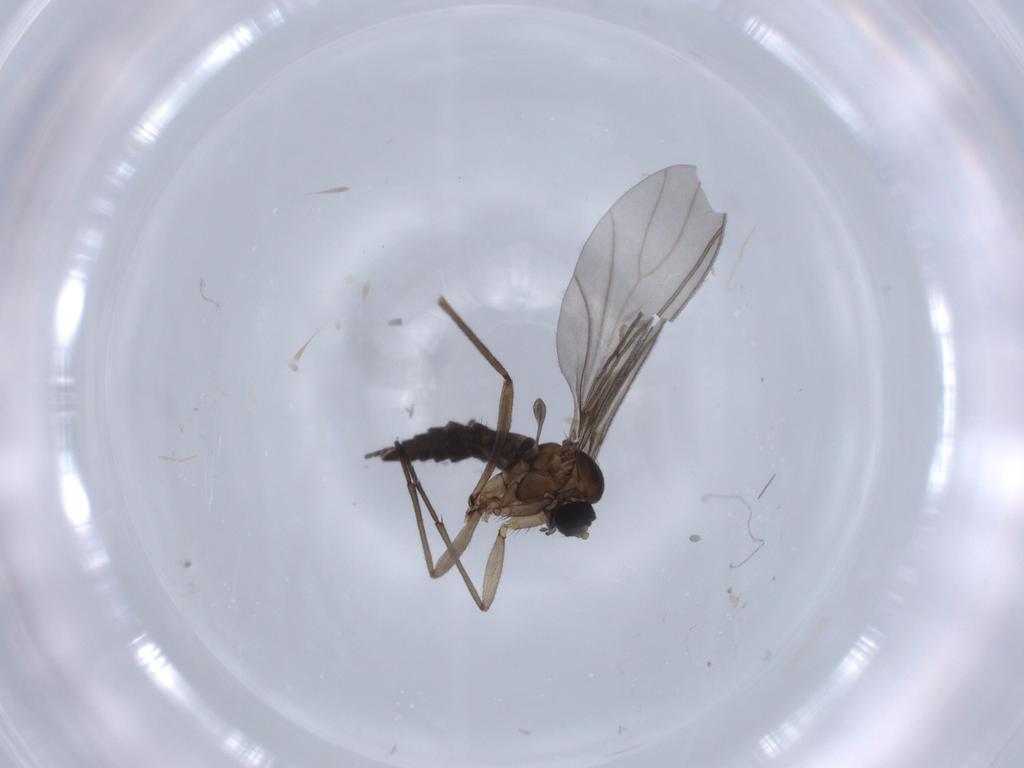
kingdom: Animalia
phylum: Arthropoda
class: Insecta
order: Diptera
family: Sciaridae
